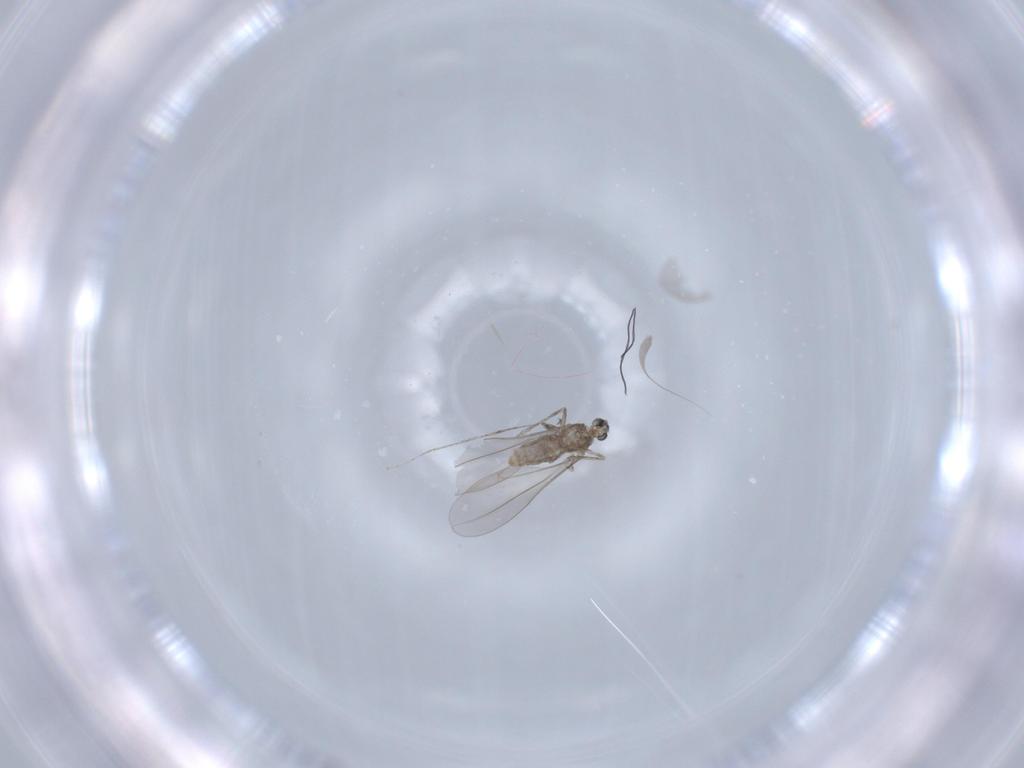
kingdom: Animalia
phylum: Arthropoda
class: Insecta
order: Diptera
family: Cecidomyiidae
